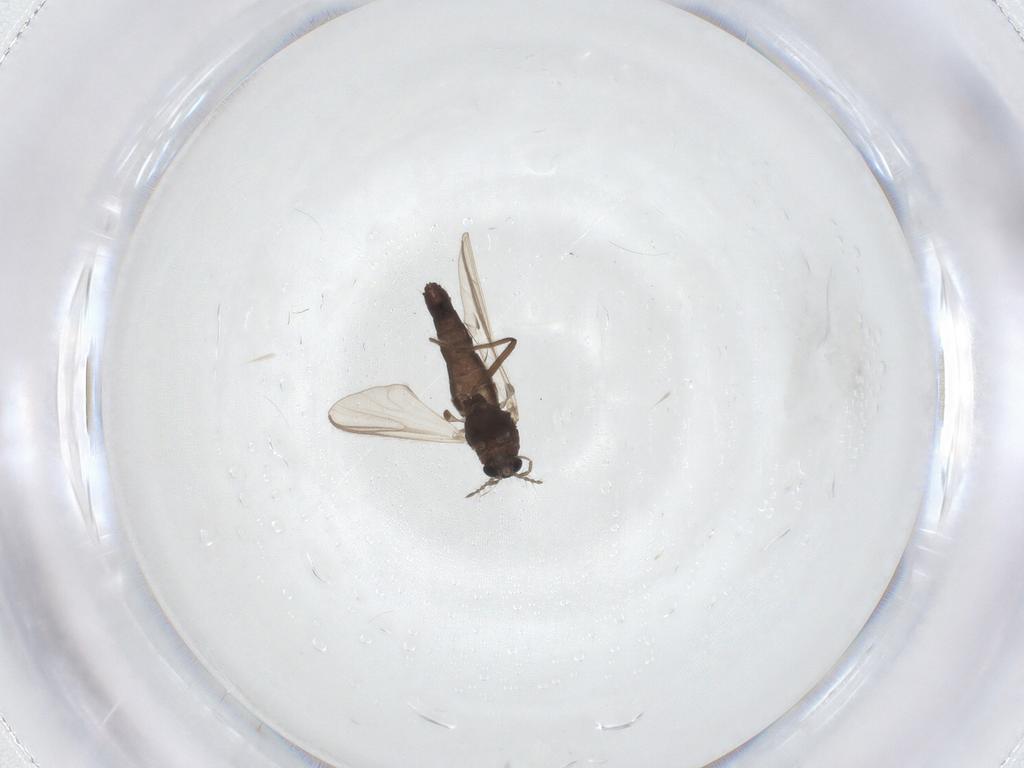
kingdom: Animalia
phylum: Arthropoda
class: Insecta
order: Diptera
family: Chironomidae
